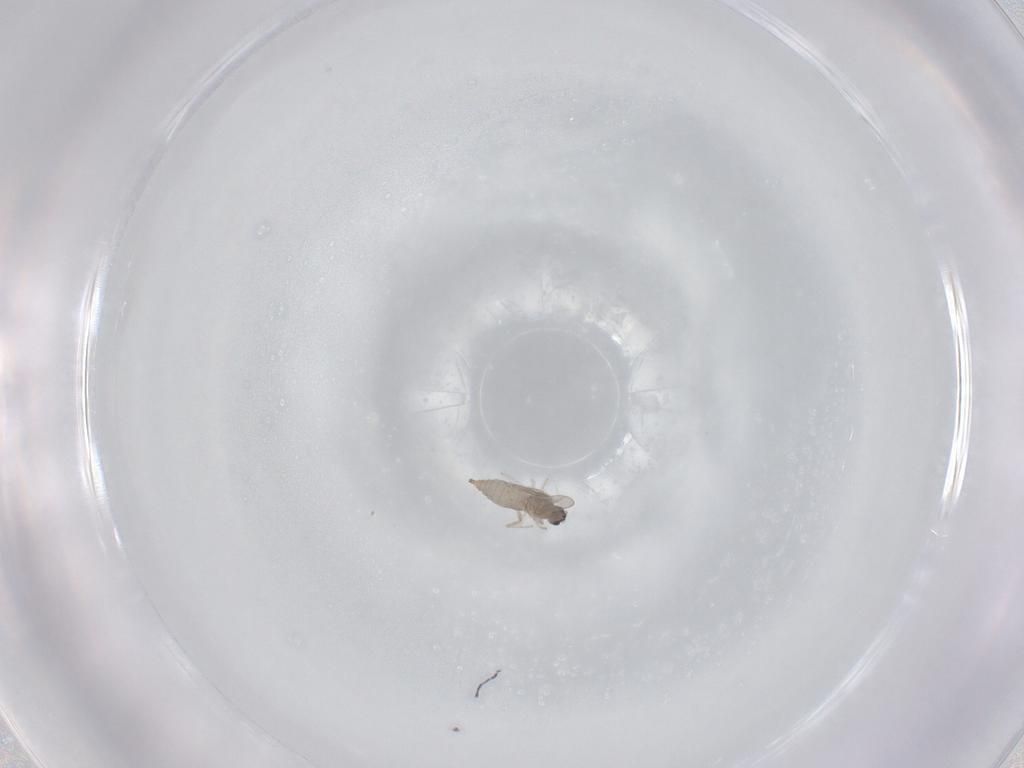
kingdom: Animalia
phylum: Arthropoda
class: Insecta
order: Diptera
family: Cecidomyiidae
